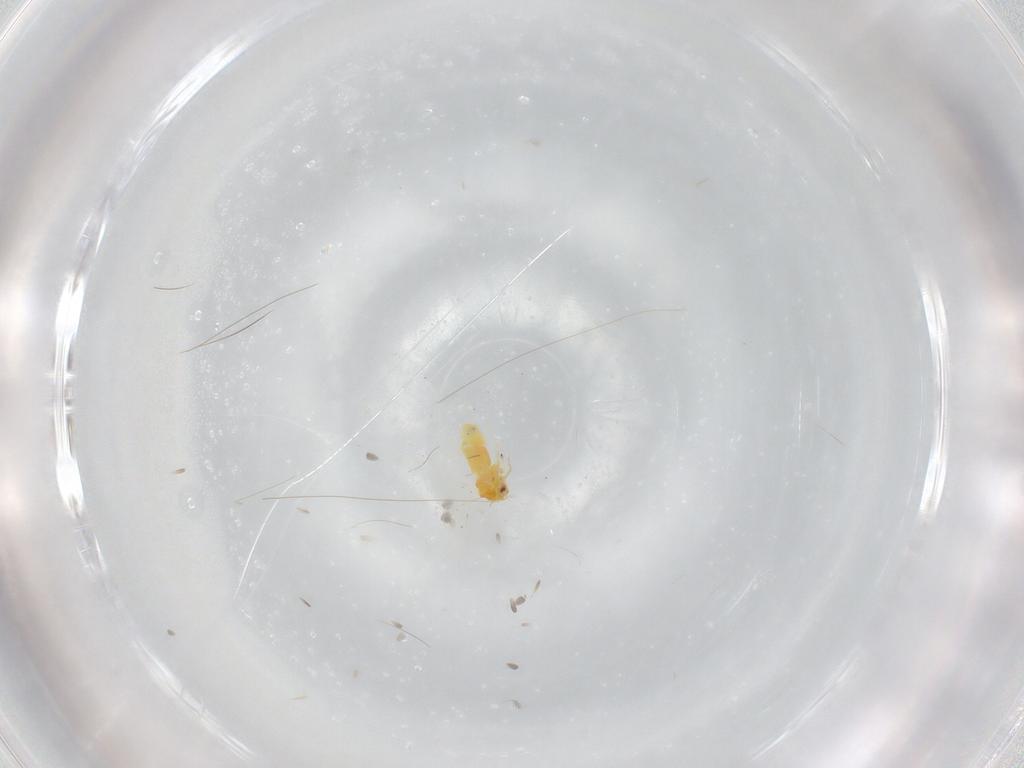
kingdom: Animalia
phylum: Arthropoda
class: Insecta
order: Hemiptera
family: Aleyrodidae
